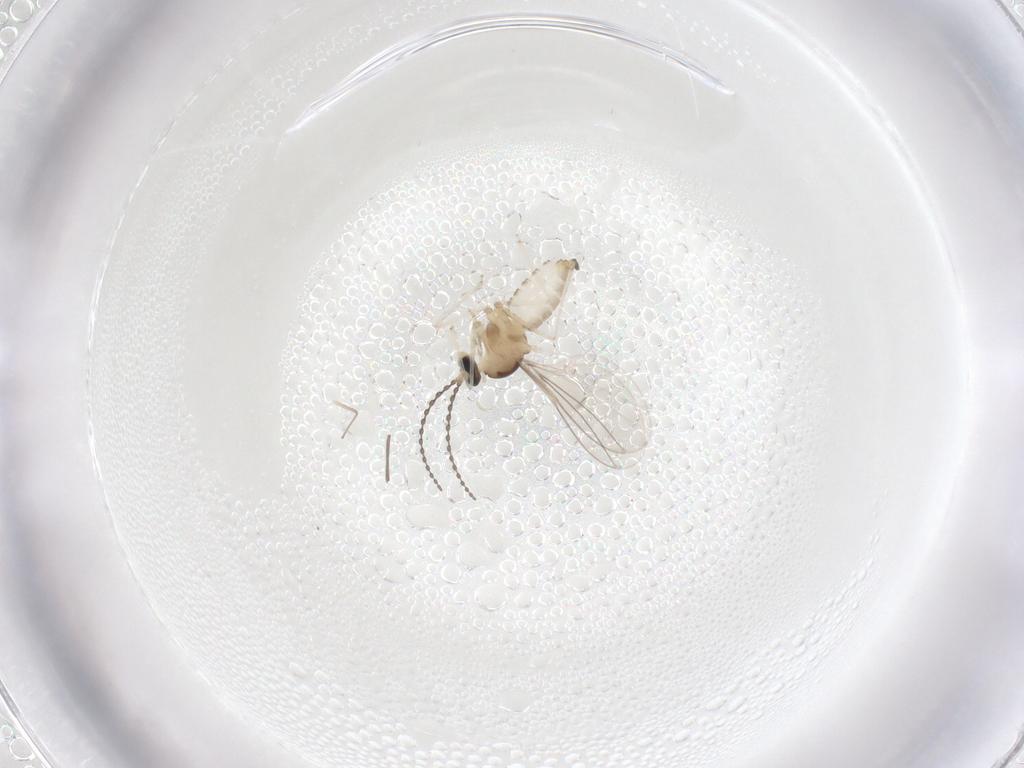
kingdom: Animalia
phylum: Arthropoda
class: Insecta
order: Diptera
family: Chironomidae
